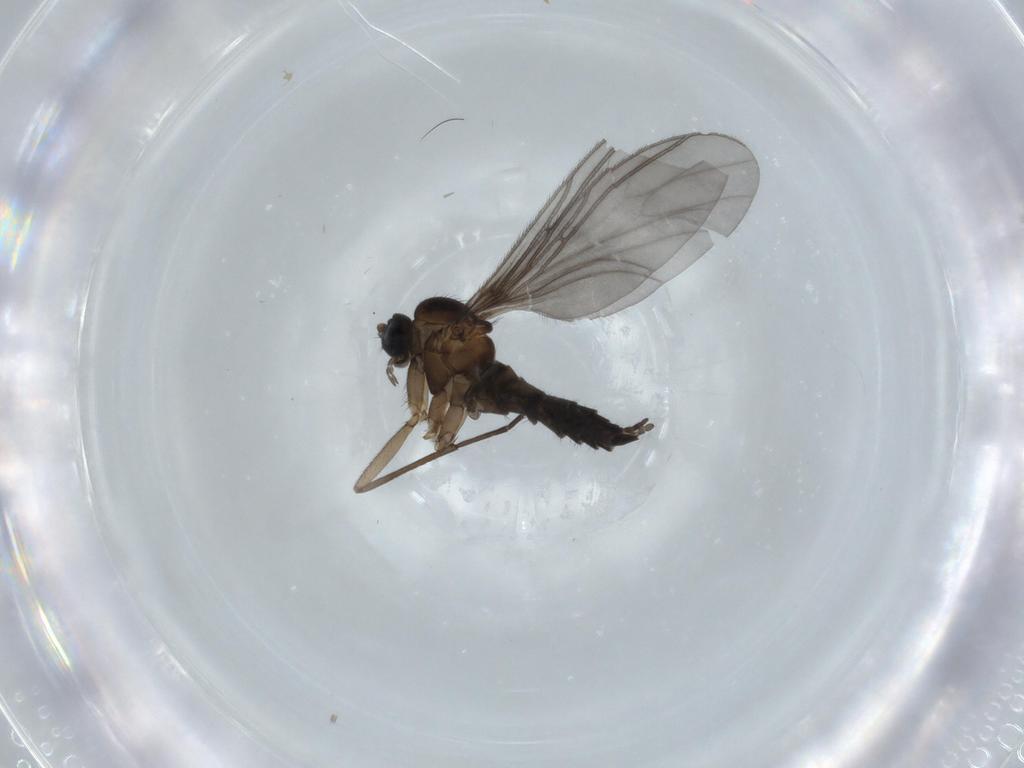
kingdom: Animalia
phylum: Arthropoda
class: Insecta
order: Diptera
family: Sciaridae
